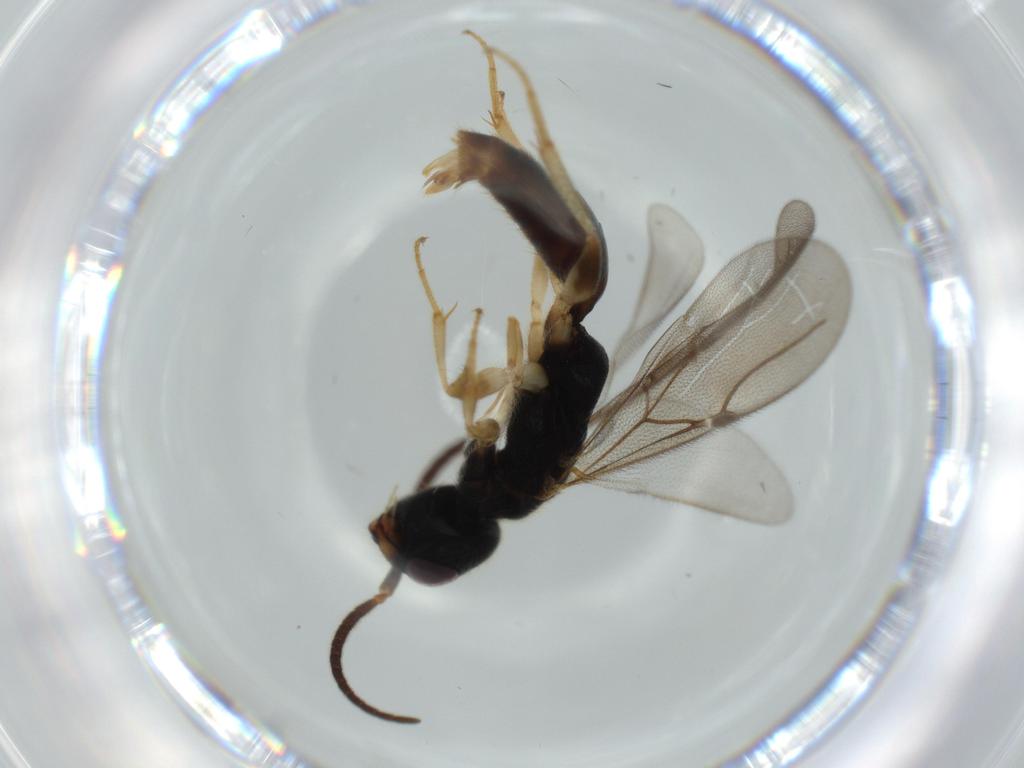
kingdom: Animalia
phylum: Arthropoda
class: Insecta
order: Hymenoptera
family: Bethylidae
